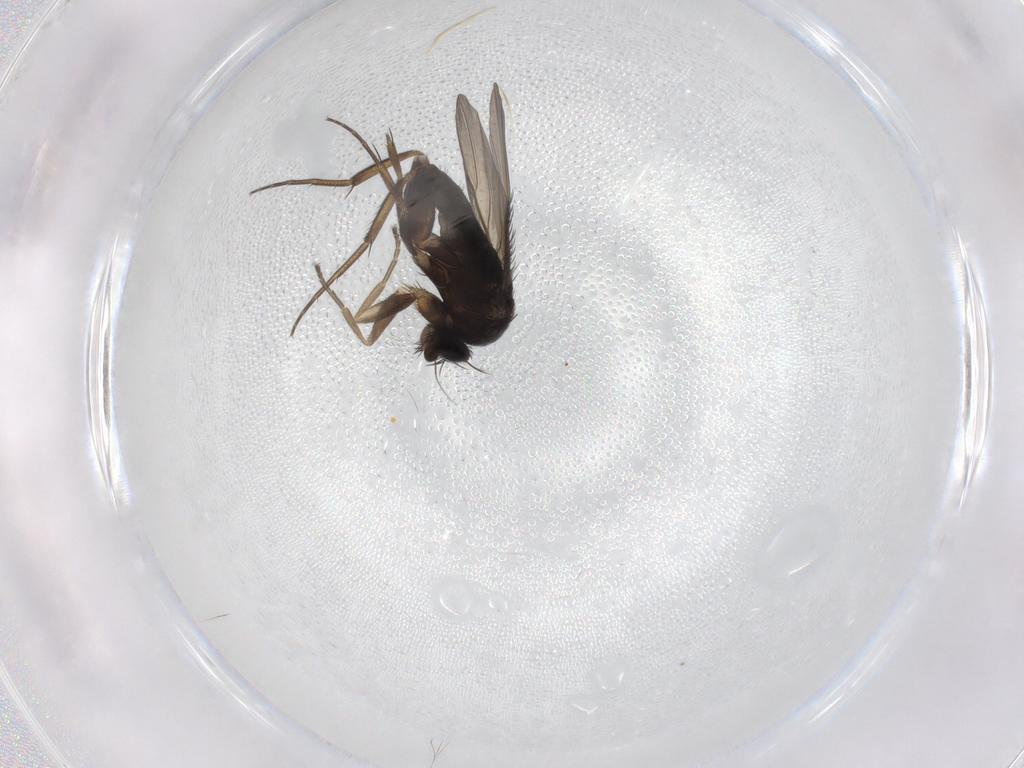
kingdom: Animalia
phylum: Arthropoda
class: Insecta
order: Diptera
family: Phoridae
